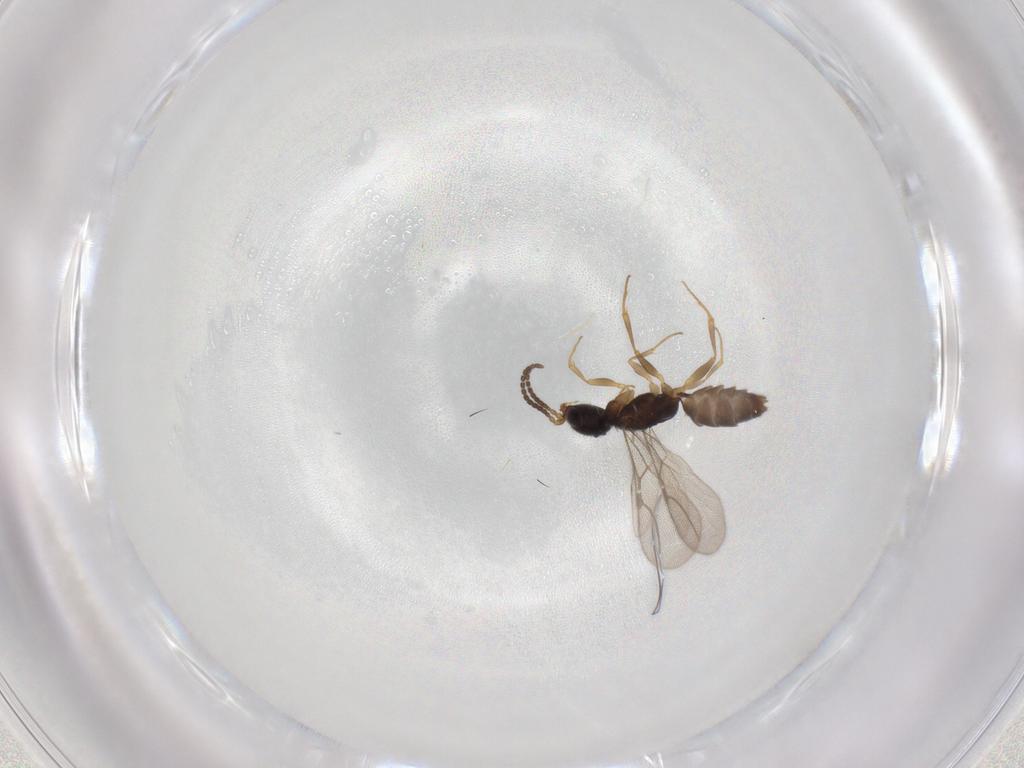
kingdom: Animalia
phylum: Arthropoda
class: Insecta
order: Hymenoptera
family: Bethylidae
